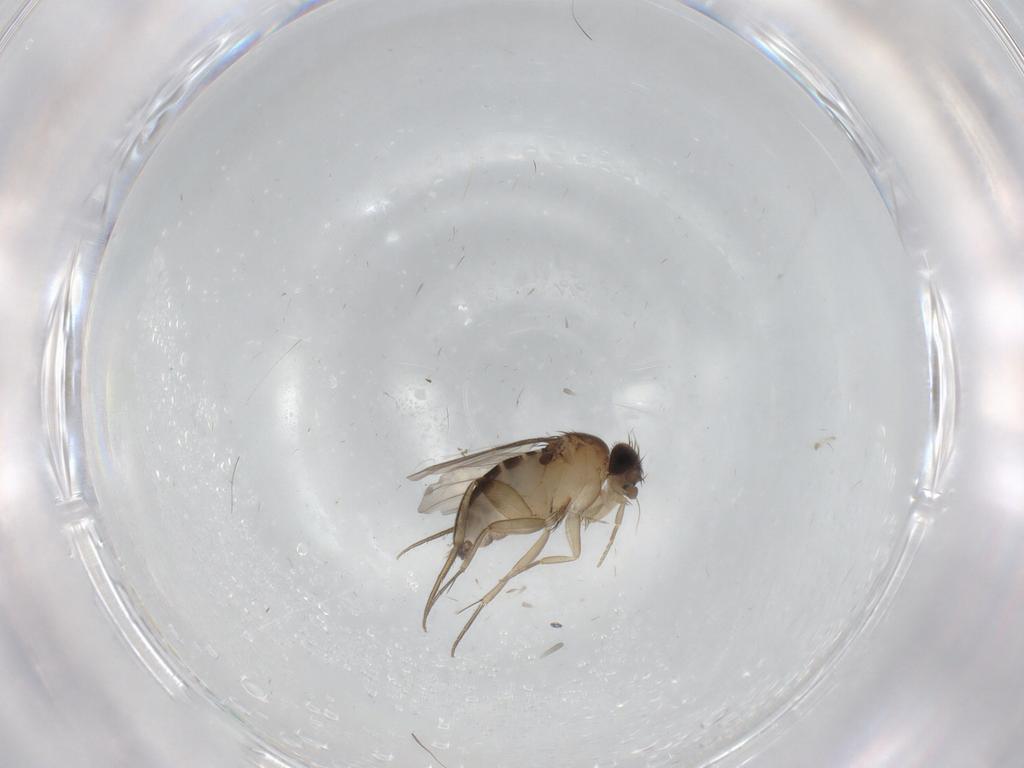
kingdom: Animalia
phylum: Arthropoda
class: Insecta
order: Diptera
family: Phoridae
